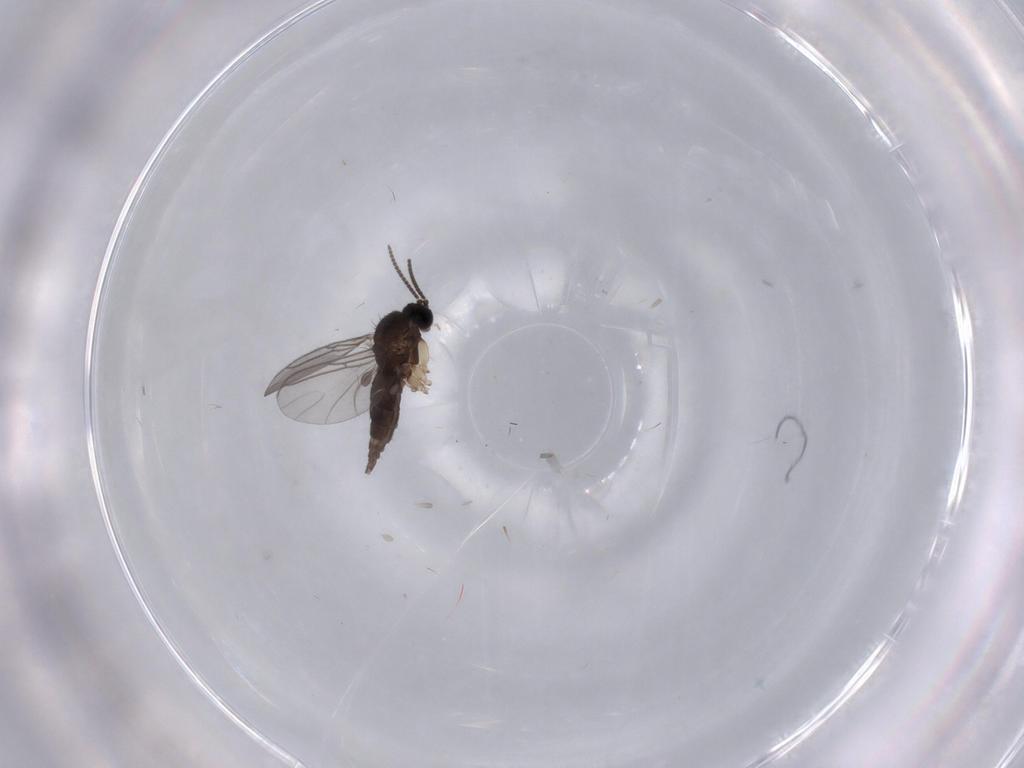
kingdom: Animalia
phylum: Arthropoda
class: Insecta
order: Diptera
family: Sciaridae
